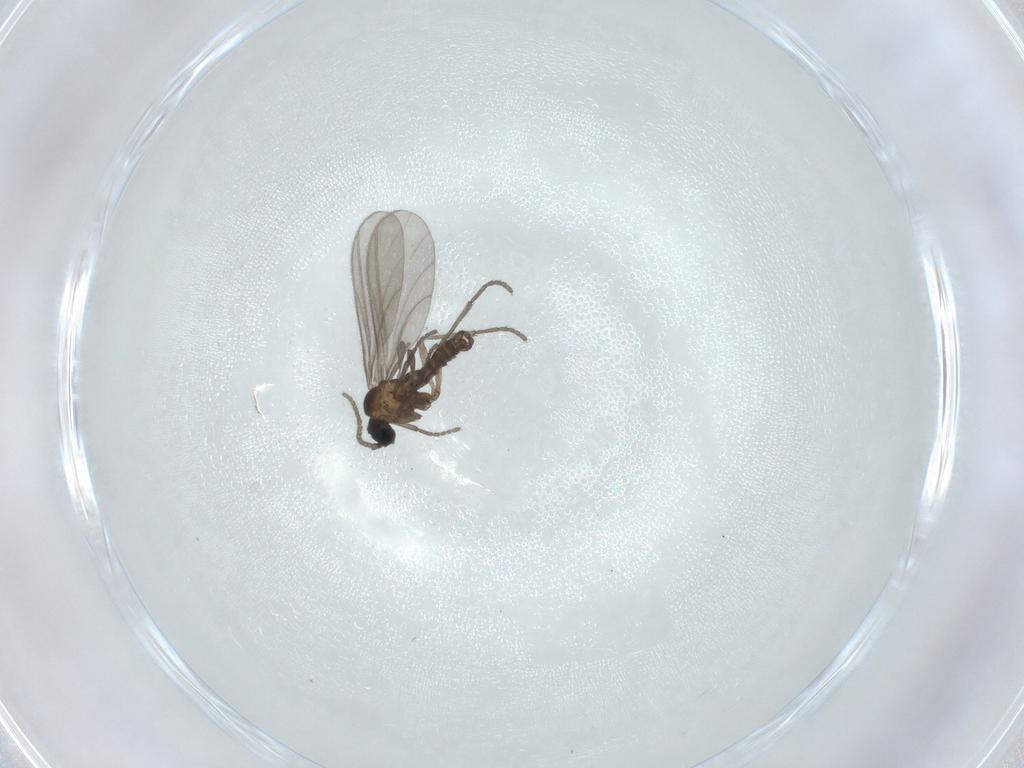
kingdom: Animalia
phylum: Arthropoda
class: Insecta
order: Diptera
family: Sciaridae
